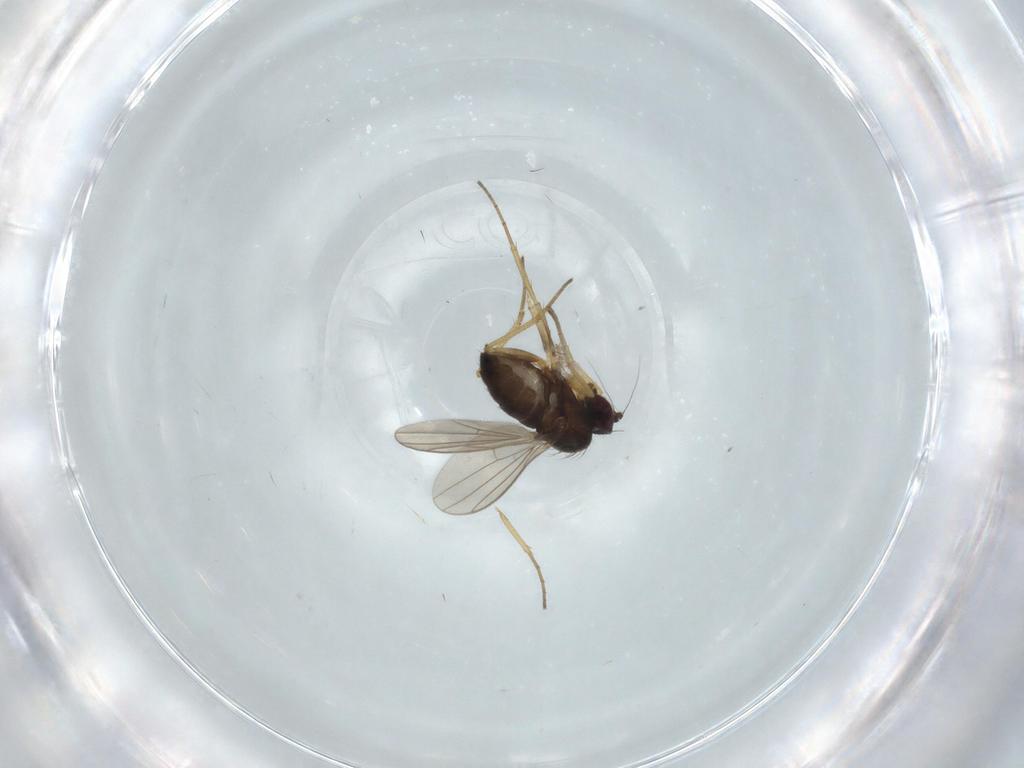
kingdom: Animalia
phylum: Arthropoda
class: Insecta
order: Diptera
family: Dolichopodidae
